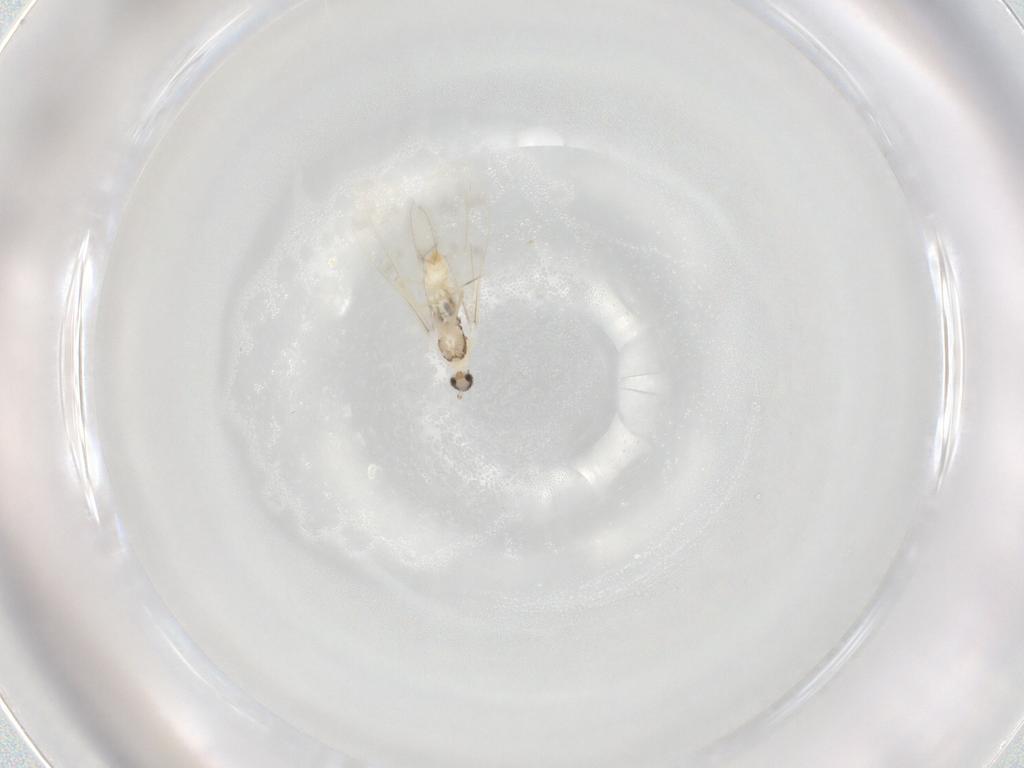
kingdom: Animalia
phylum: Arthropoda
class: Insecta
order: Diptera
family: Cecidomyiidae
